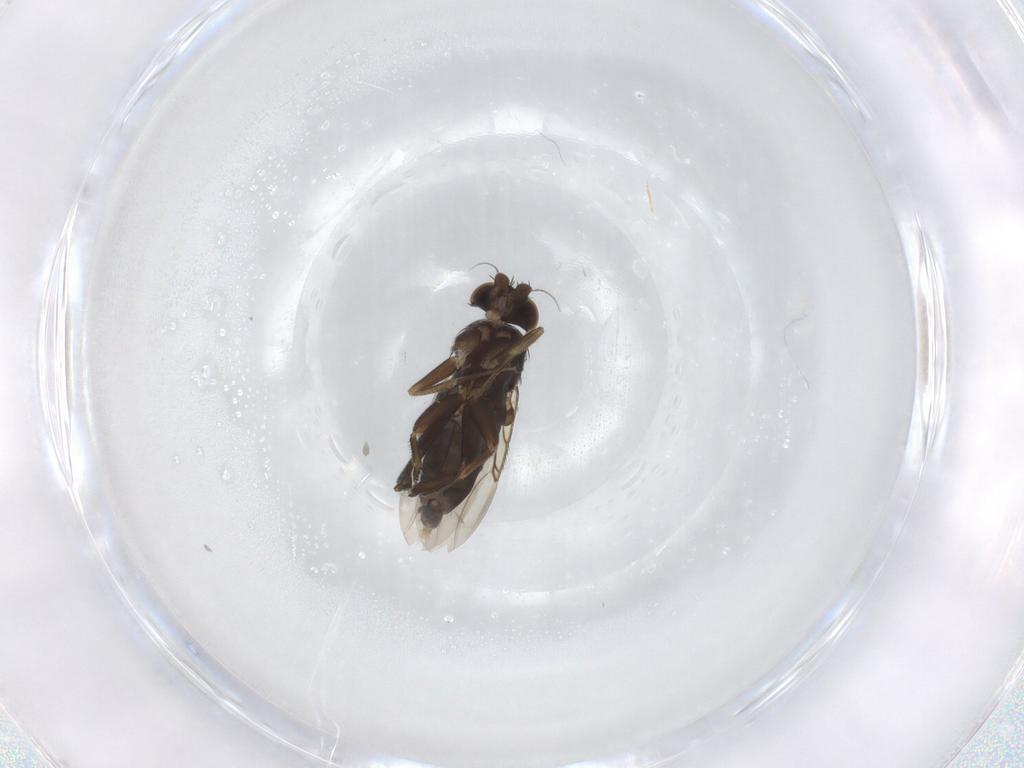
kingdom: Animalia
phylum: Arthropoda
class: Insecta
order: Diptera
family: Phoridae
